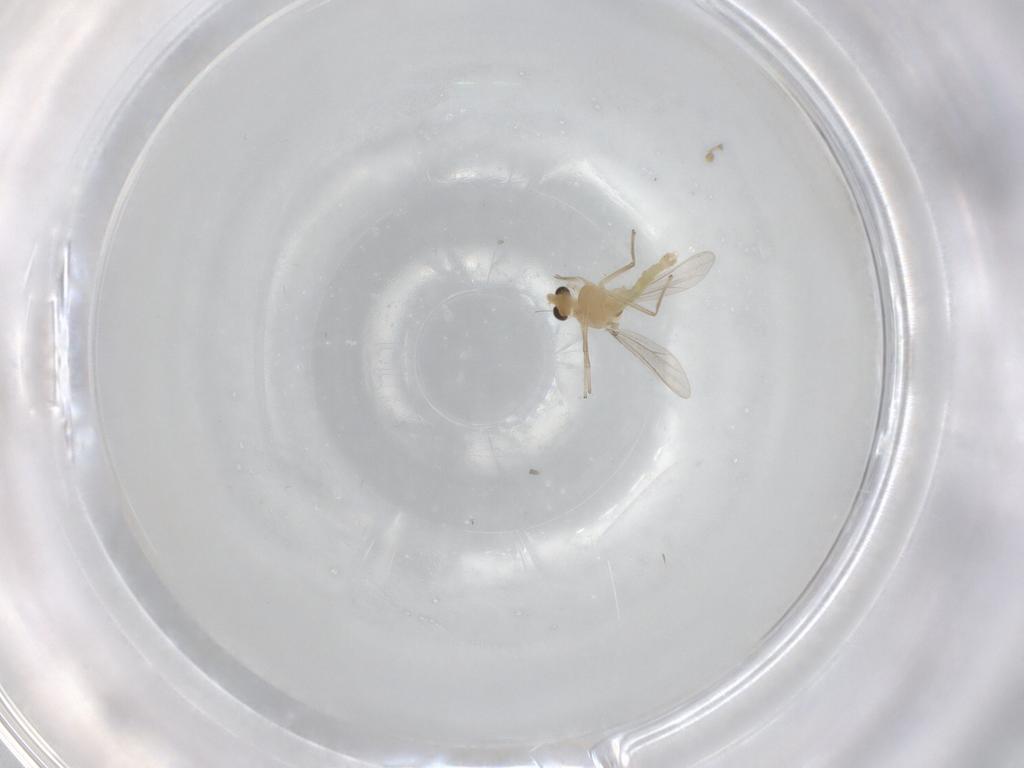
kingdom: Animalia
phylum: Arthropoda
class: Insecta
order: Diptera
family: Chironomidae
